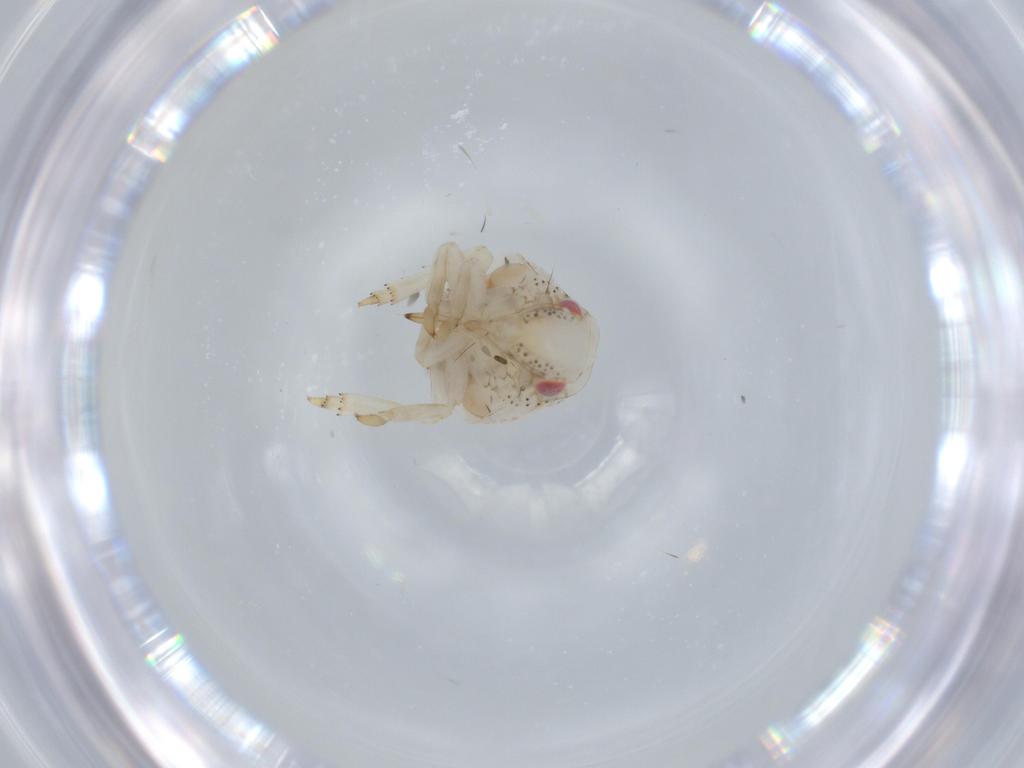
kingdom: Animalia
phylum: Arthropoda
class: Insecta
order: Hemiptera
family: Acanaloniidae
